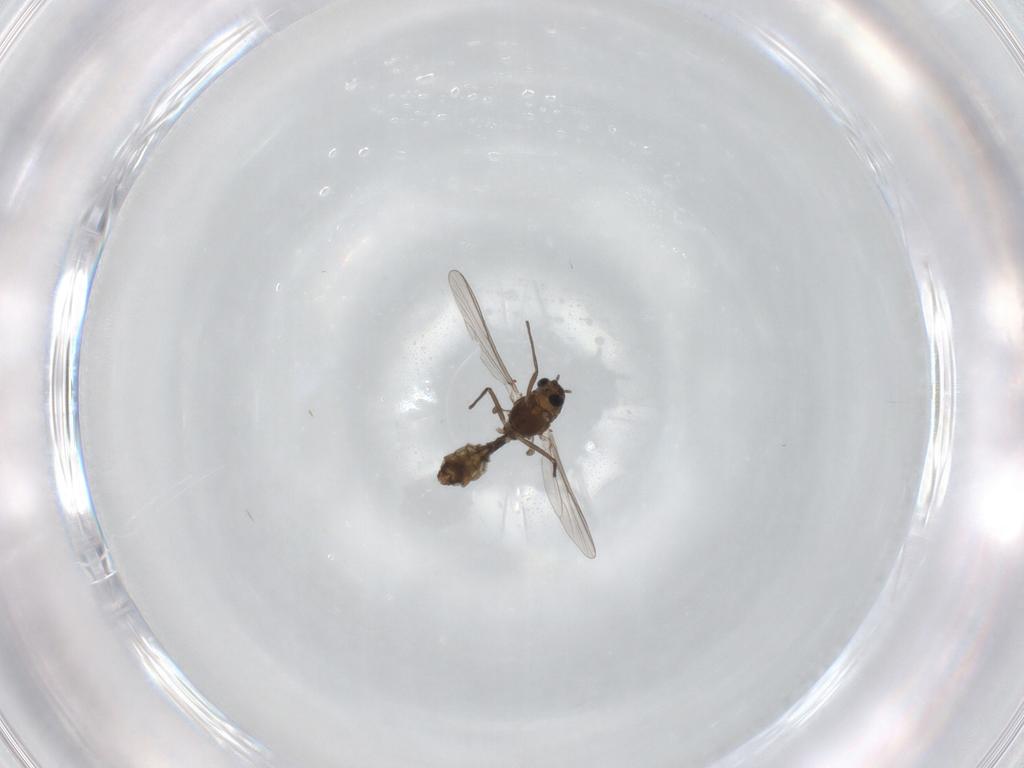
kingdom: Animalia
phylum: Arthropoda
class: Insecta
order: Diptera
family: Chironomidae
